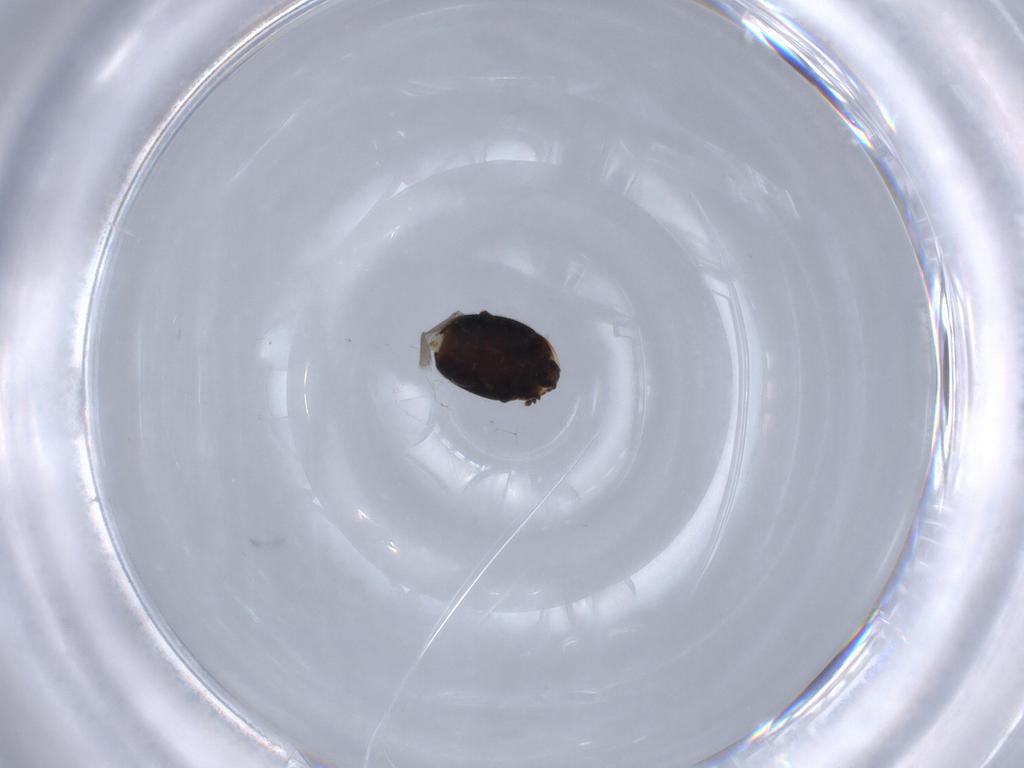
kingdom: Animalia
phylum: Arthropoda
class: Insecta
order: Coleoptera
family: Corylophidae
